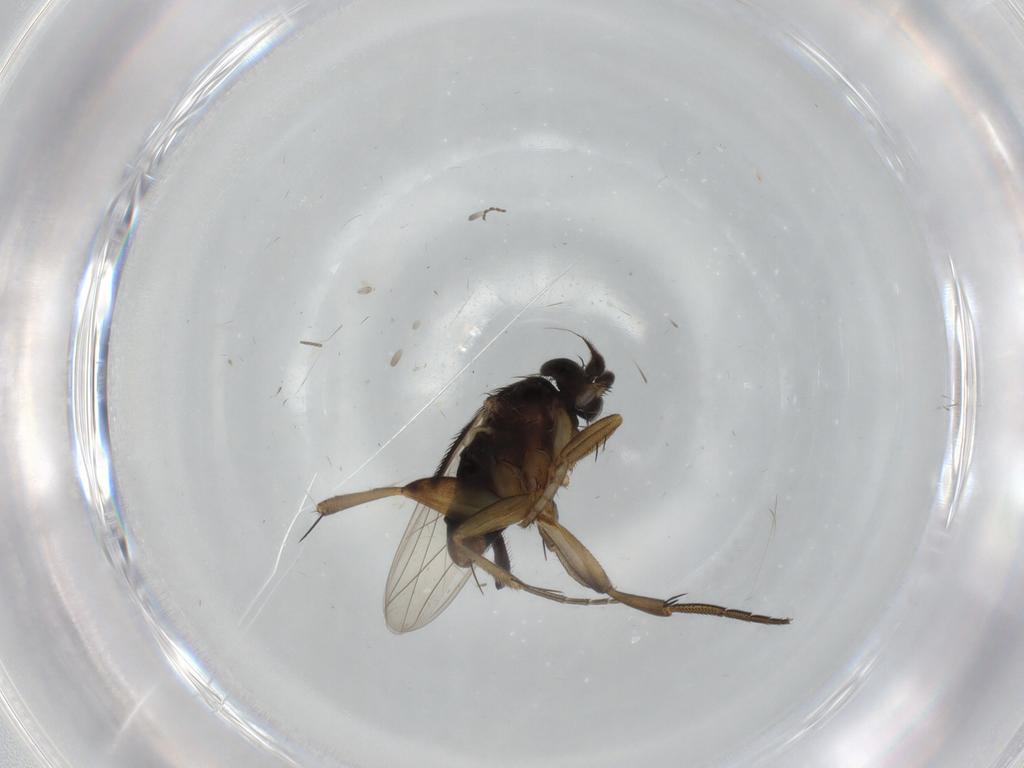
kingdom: Animalia
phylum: Arthropoda
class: Insecta
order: Diptera
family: Phoridae
